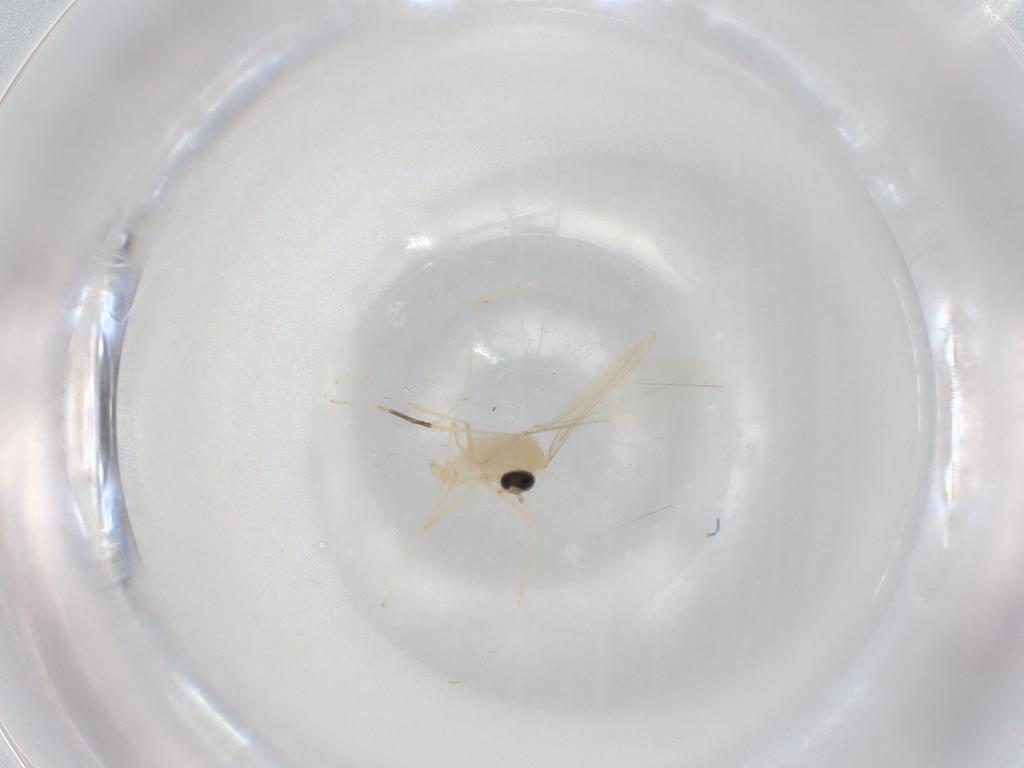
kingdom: Animalia
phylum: Arthropoda
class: Insecta
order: Diptera
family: Cecidomyiidae
